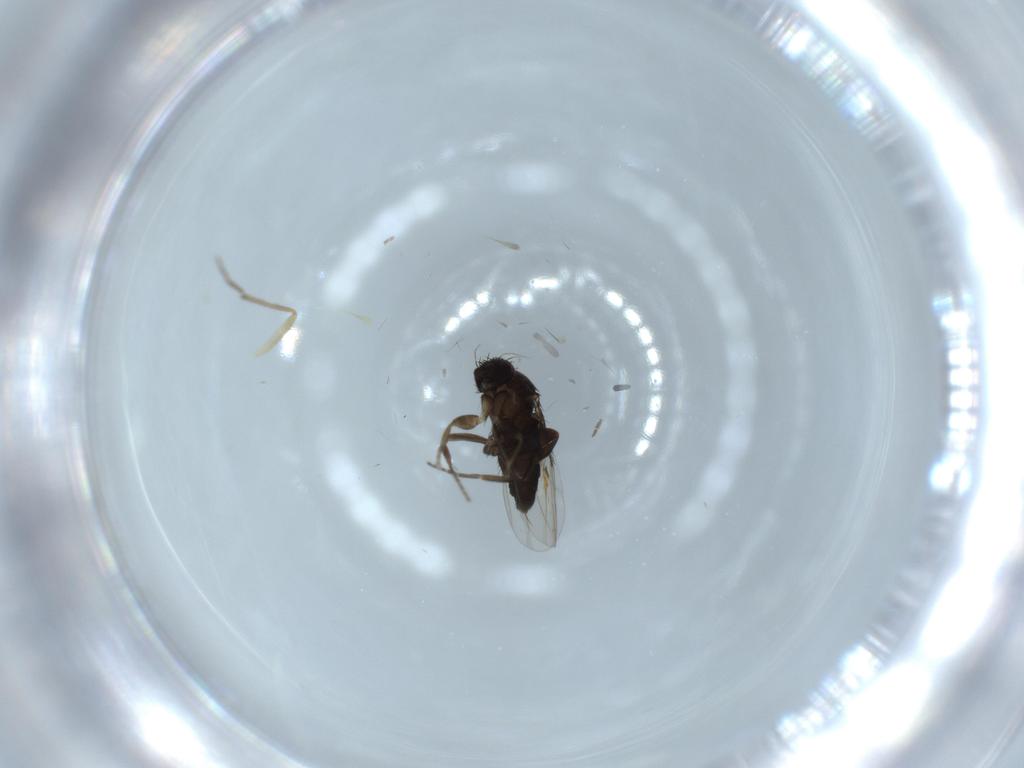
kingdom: Animalia
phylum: Arthropoda
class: Insecta
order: Diptera
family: Phoridae
